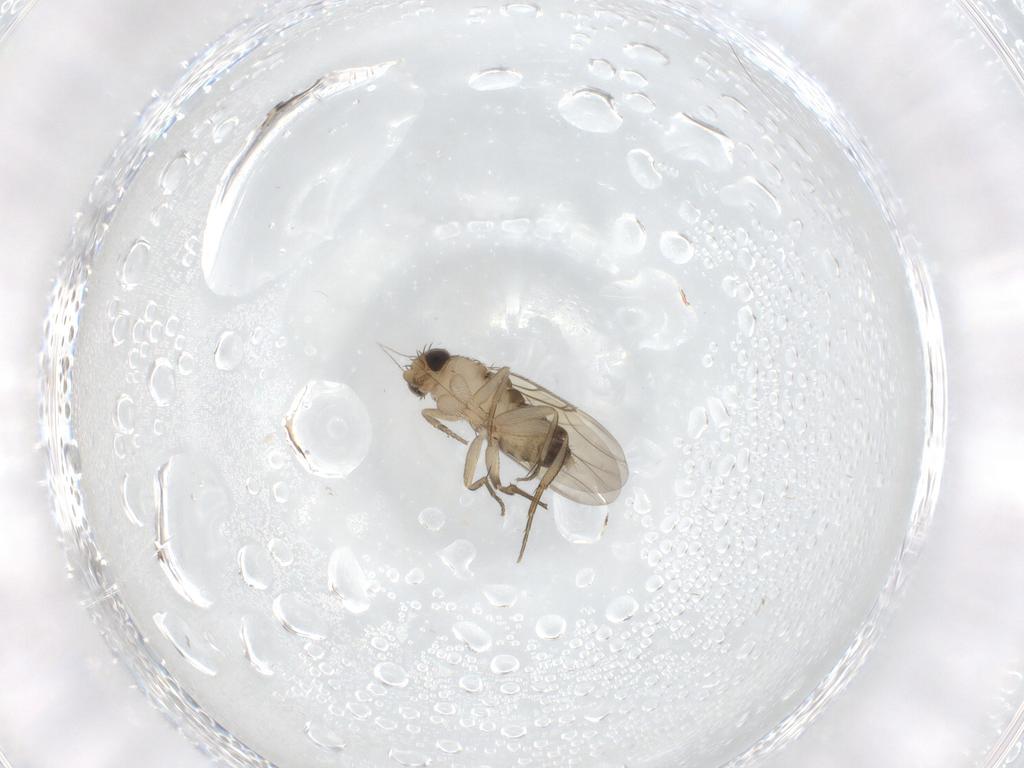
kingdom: Animalia
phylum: Arthropoda
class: Insecta
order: Diptera
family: Phoridae
